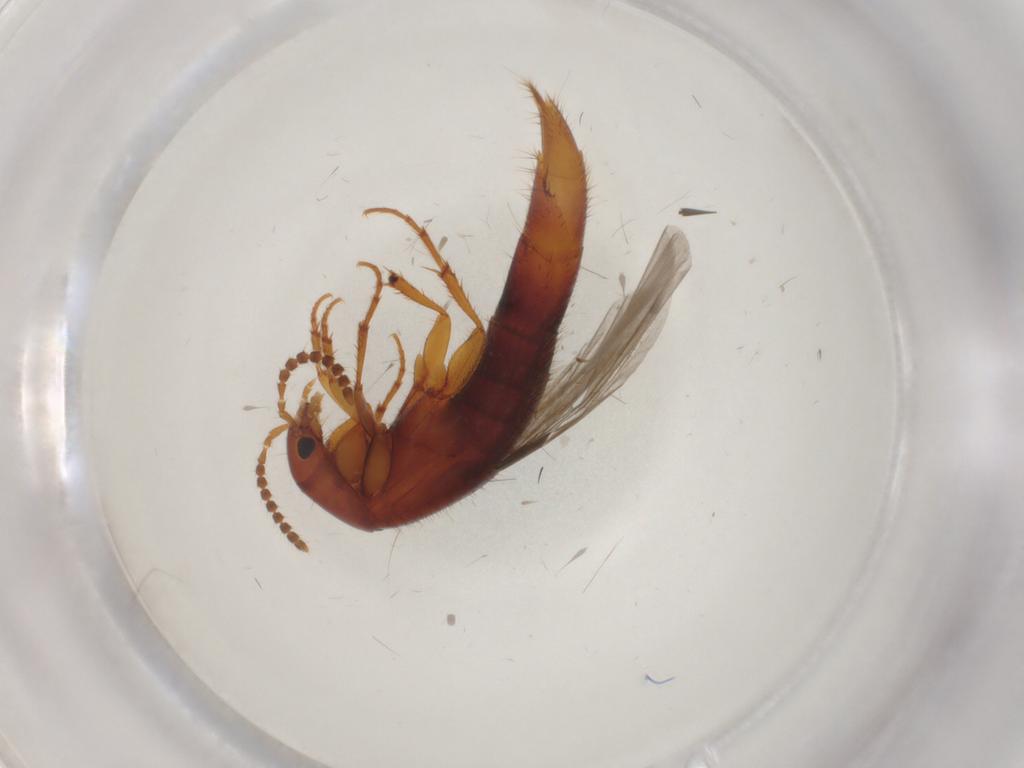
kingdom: Animalia
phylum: Arthropoda
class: Insecta
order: Coleoptera
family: Staphylinidae
